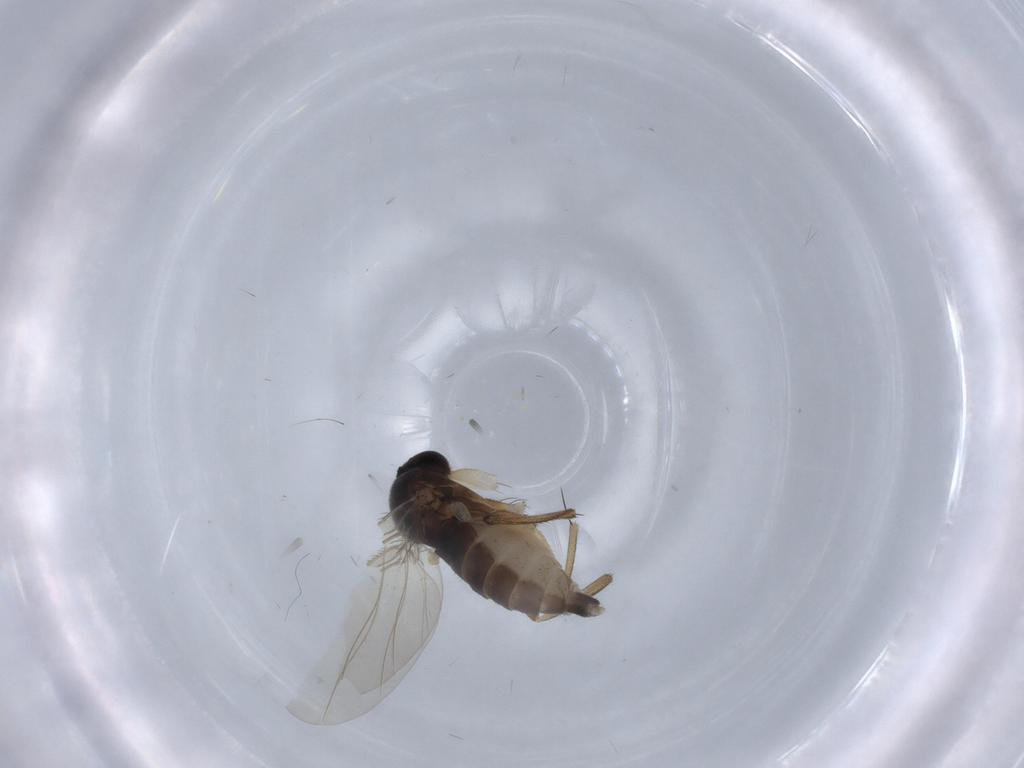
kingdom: Animalia
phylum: Arthropoda
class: Insecta
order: Diptera
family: Phoridae
